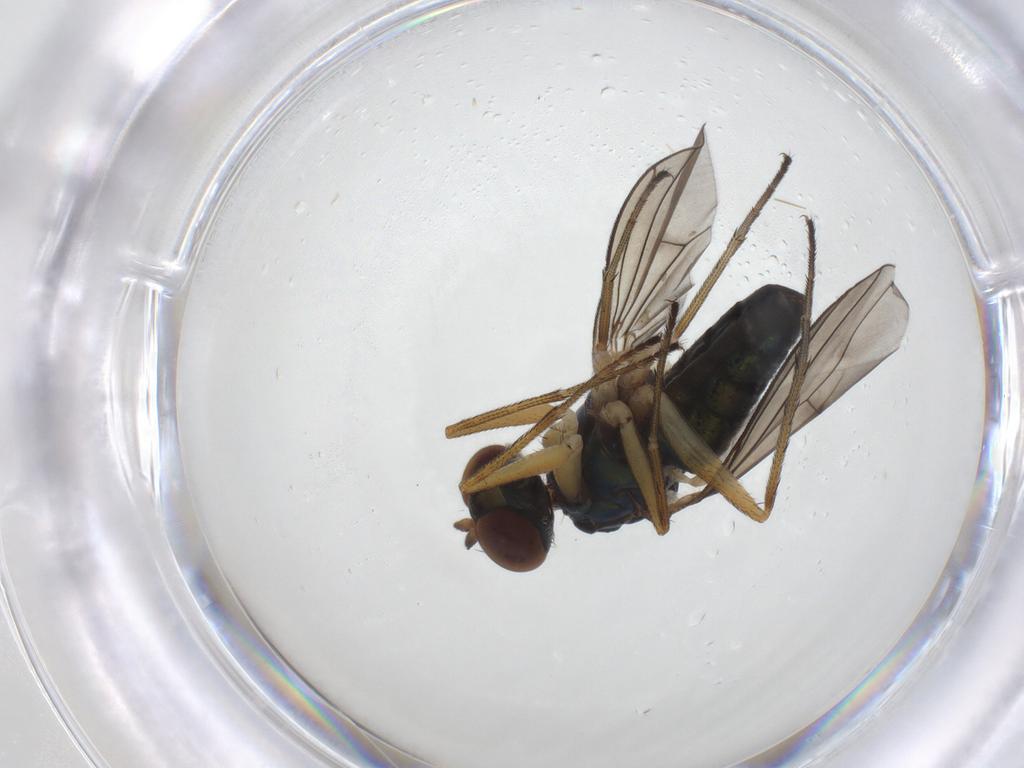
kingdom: Animalia
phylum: Arthropoda
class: Insecta
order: Diptera
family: Dolichopodidae
